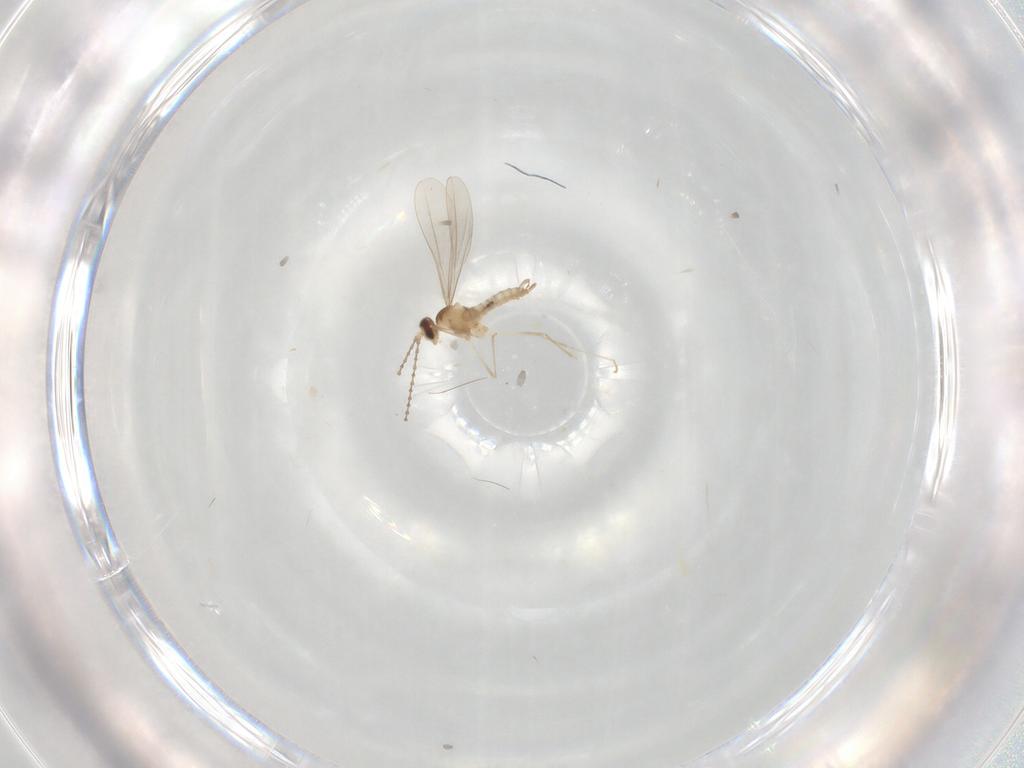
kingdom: Animalia
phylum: Arthropoda
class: Insecta
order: Diptera
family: Cecidomyiidae
